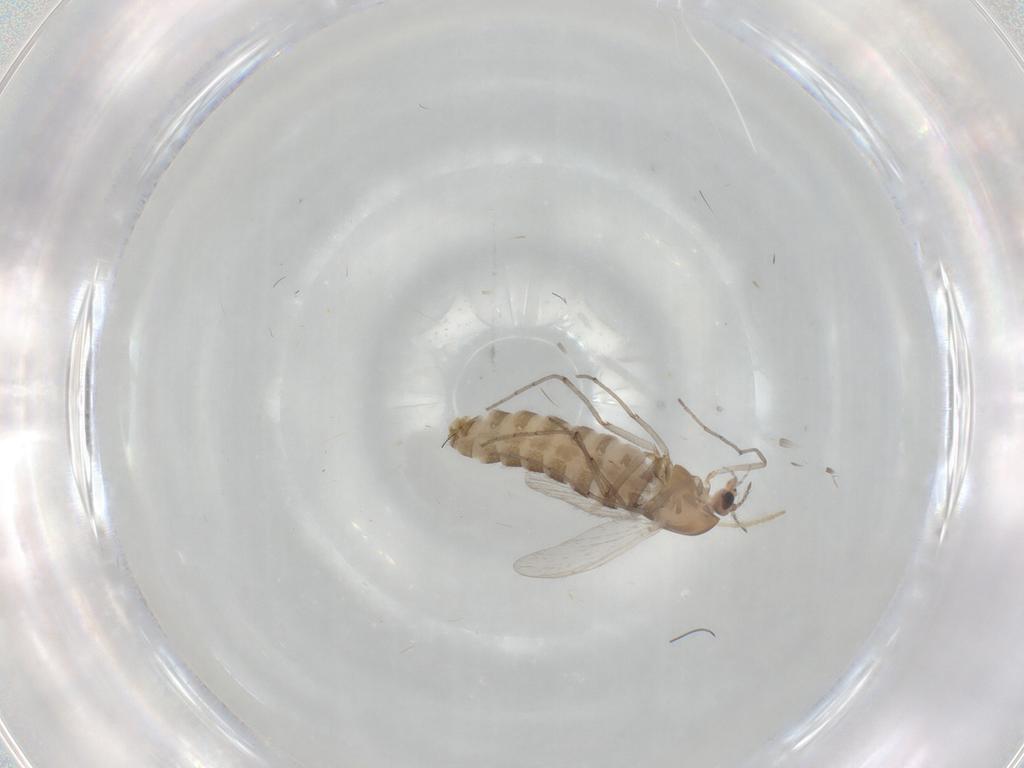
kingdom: Animalia
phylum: Arthropoda
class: Insecta
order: Diptera
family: Chironomidae
